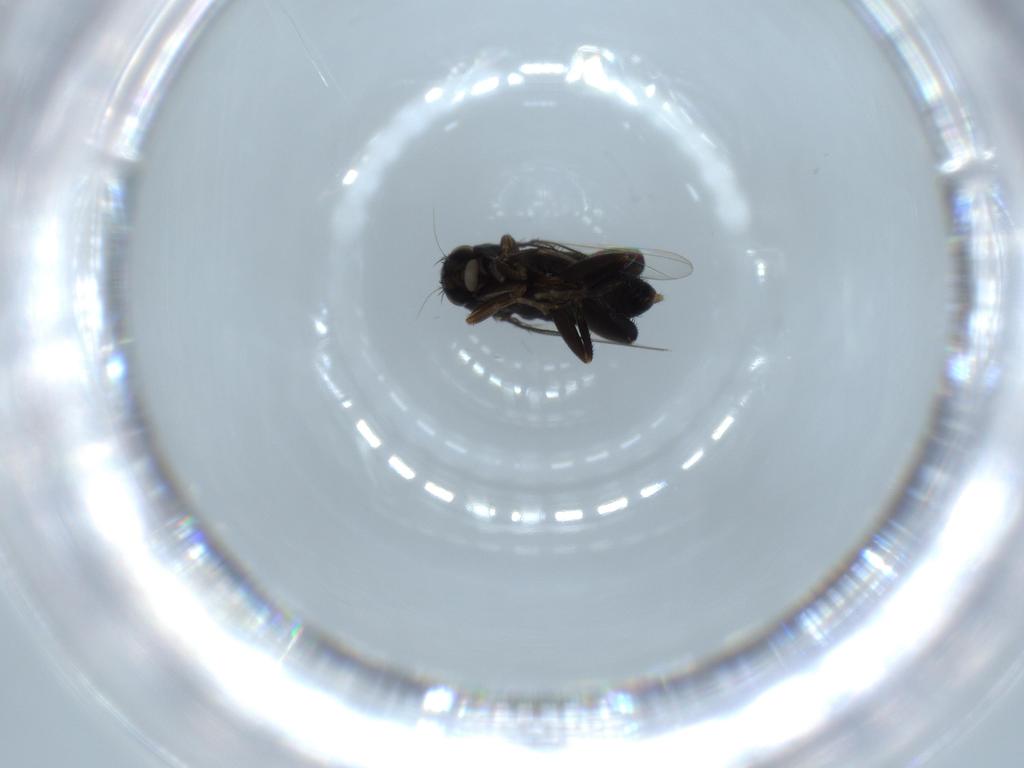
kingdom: Animalia
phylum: Arthropoda
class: Insecta
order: Diptera
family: Phoridae
